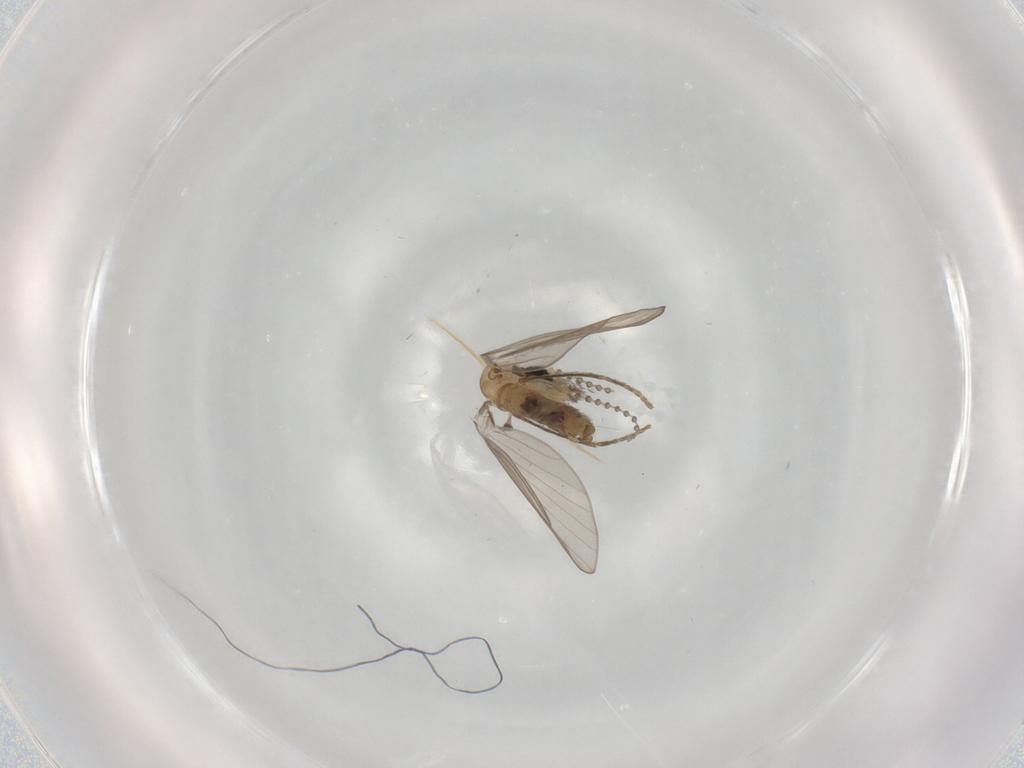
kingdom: Animalia
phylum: Arthropoda
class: Insecta
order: Diptera
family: Psychodidae
